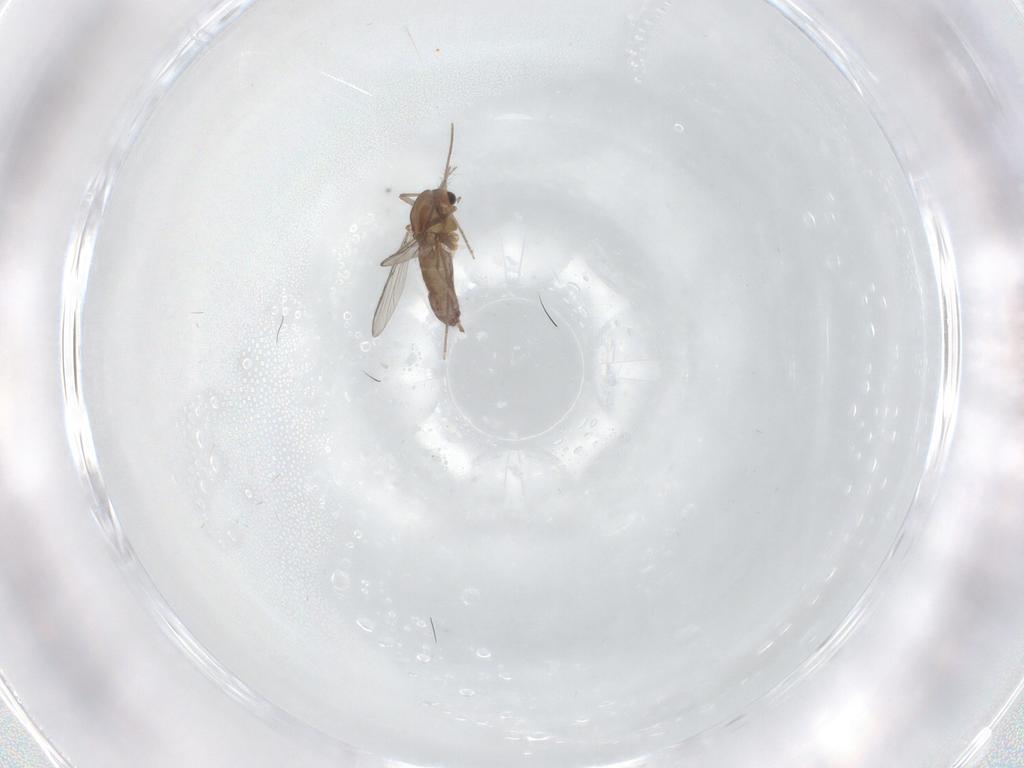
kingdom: Animalia
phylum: Arthropoda
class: Insecta
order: Diptera
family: Chironomidae
